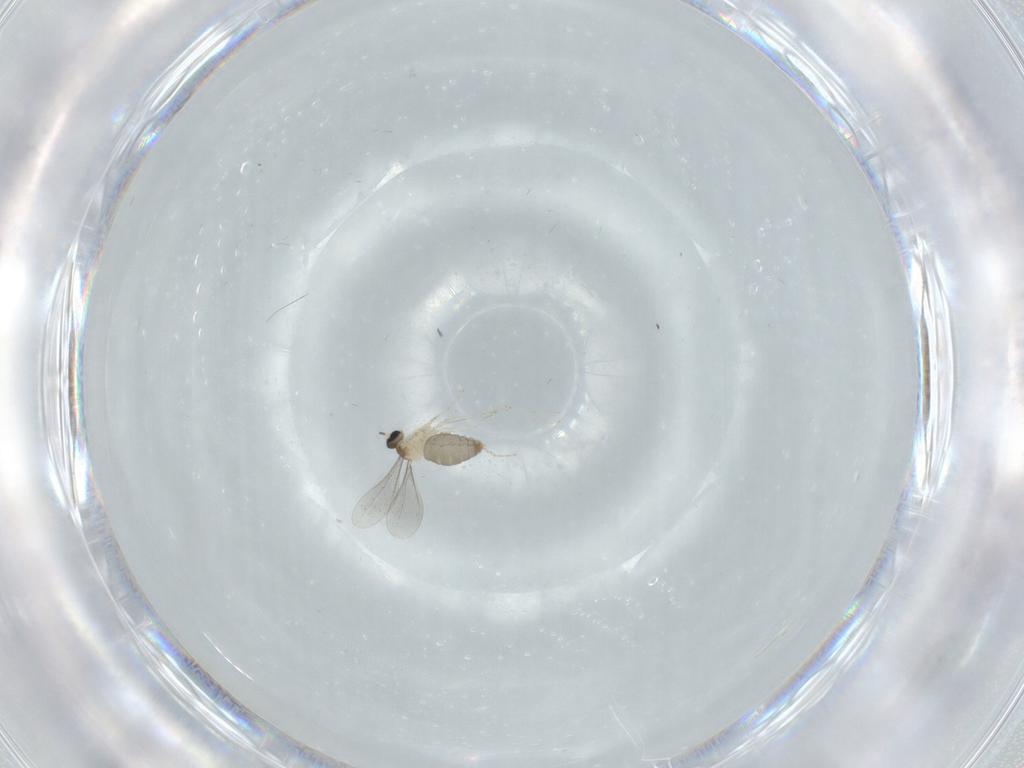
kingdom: Animalia
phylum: Arthropoda
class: Insecta
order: Diptera
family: Cecidomyiidae
